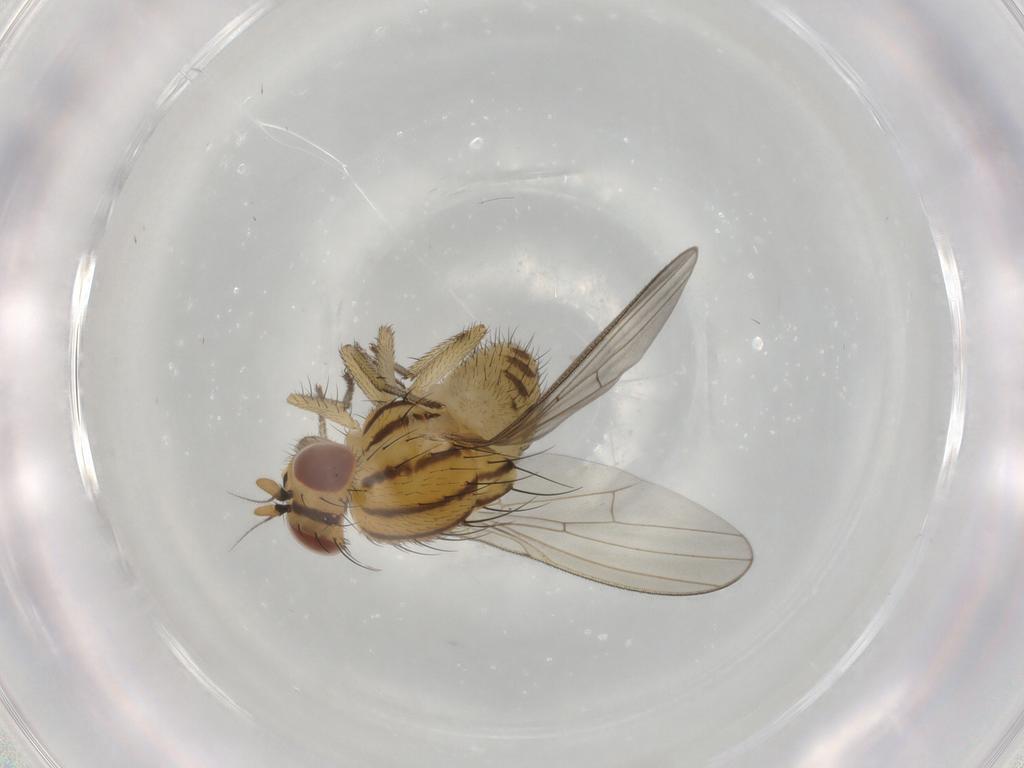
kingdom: Animalia
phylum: Arthropoda
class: Insecta
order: Diptera
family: Lauxaniidae
